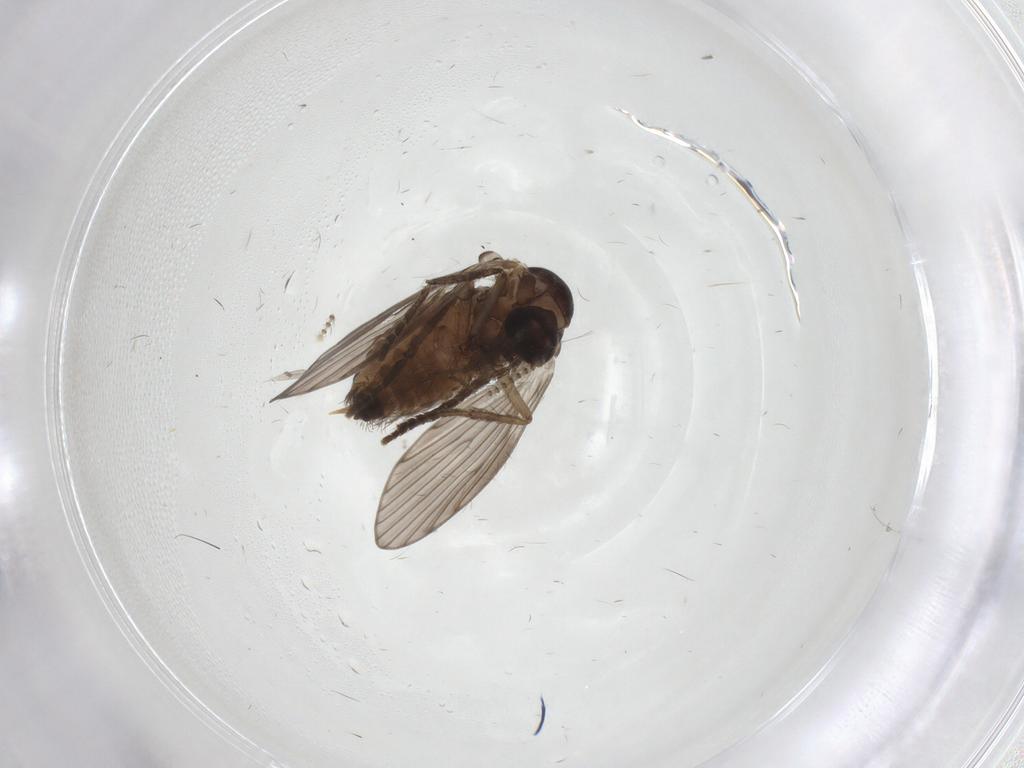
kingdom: Animalia
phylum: Arthropoda
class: Insecta
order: Diptera
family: Psychodidae
